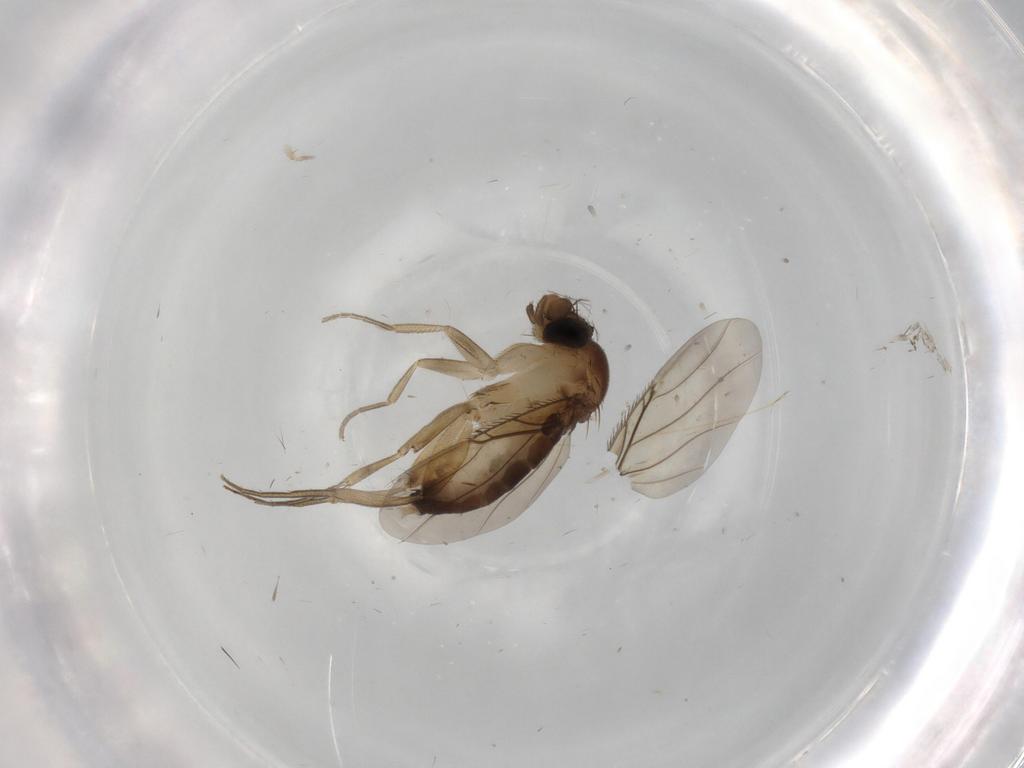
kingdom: Animalia
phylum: Arthropoda
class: Insecta
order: Diptera
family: Phoridae
